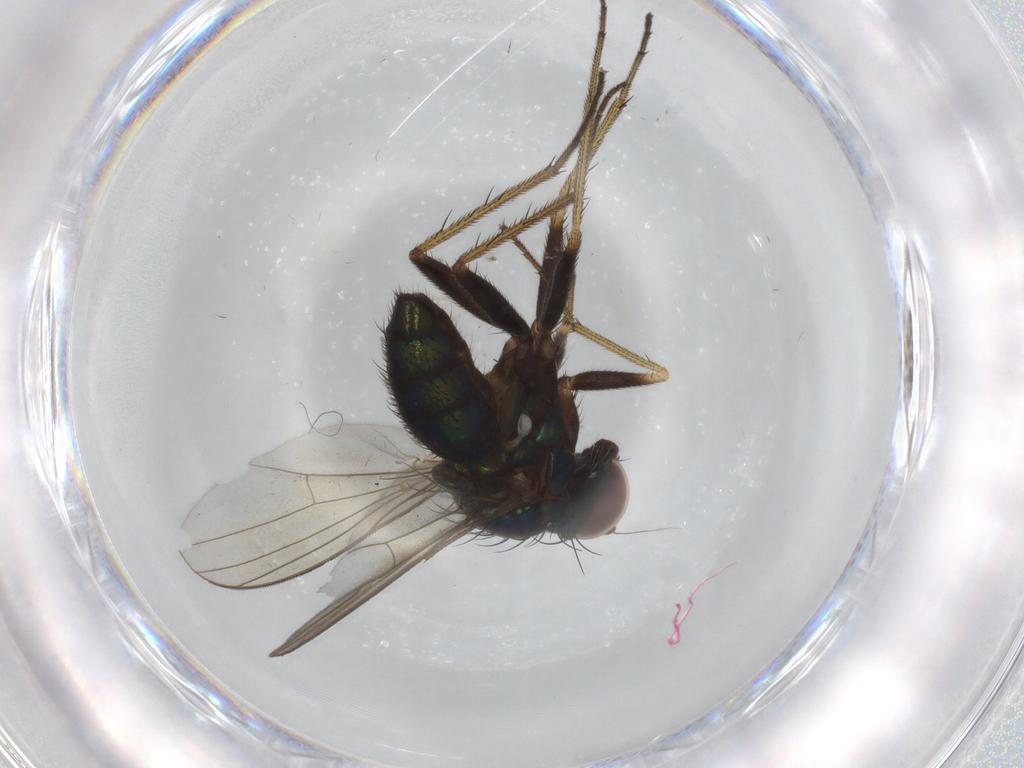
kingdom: Animalia
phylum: Arthropoda
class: Insecta
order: Diptera
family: Dolichopodidae
